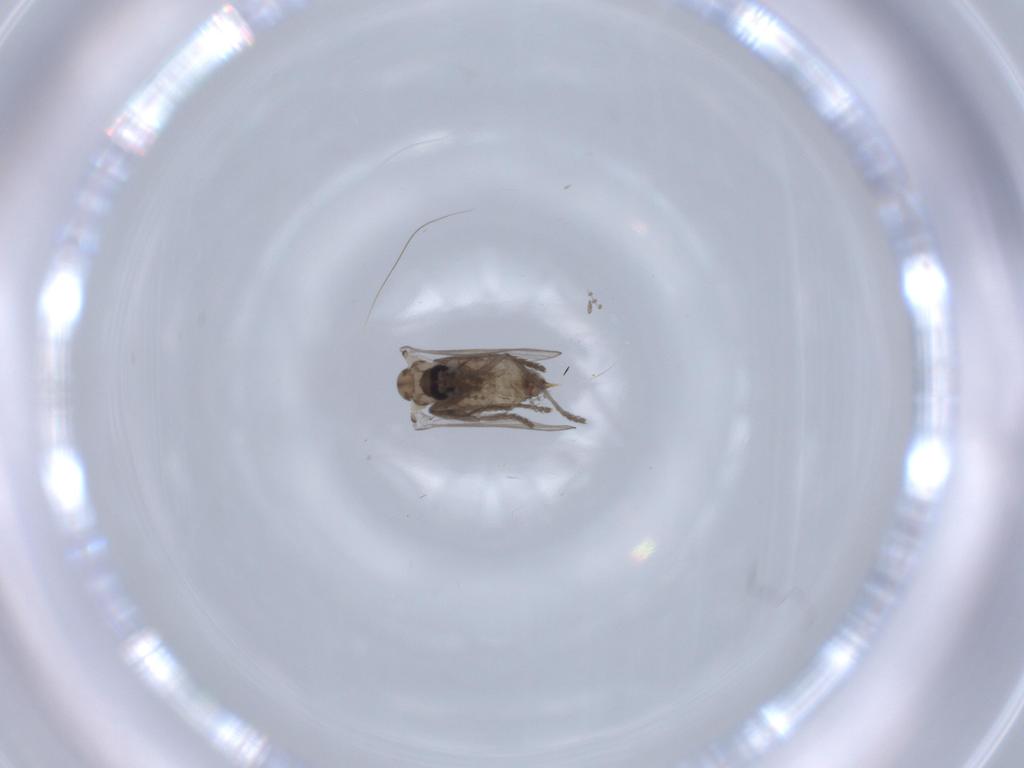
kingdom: Animalia
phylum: Arthropoda
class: Insecta
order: Diptera
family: Psychodidae
